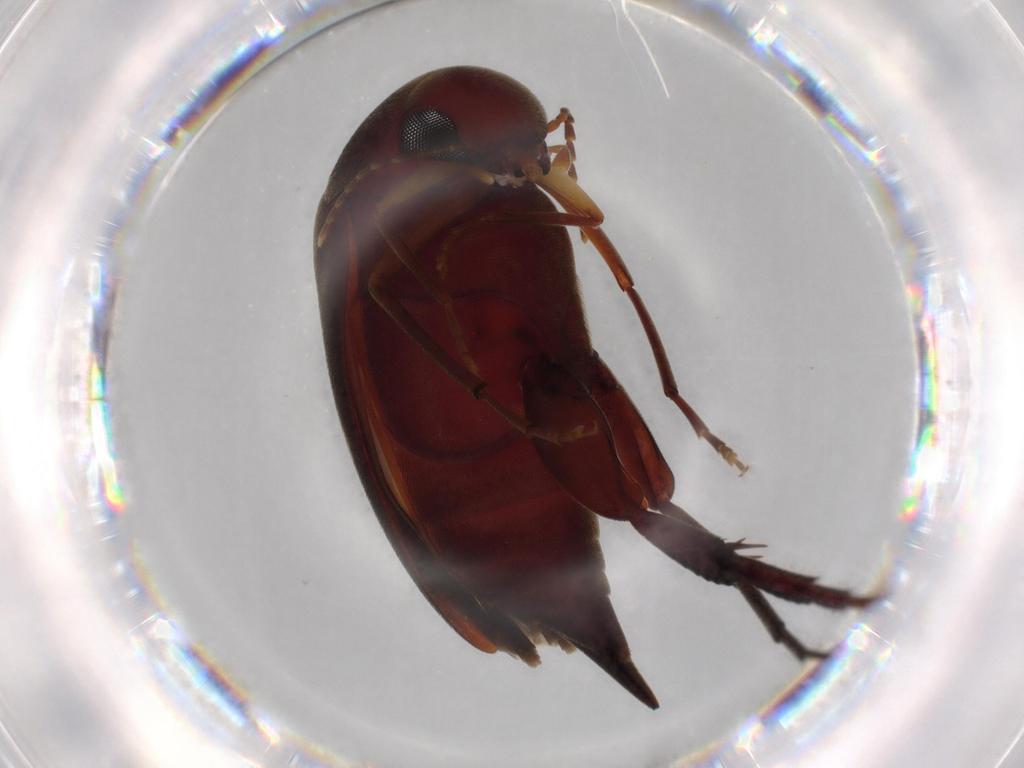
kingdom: Animalia
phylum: Arthropoda
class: Insecta
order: Coleoptera
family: Mordellidae
